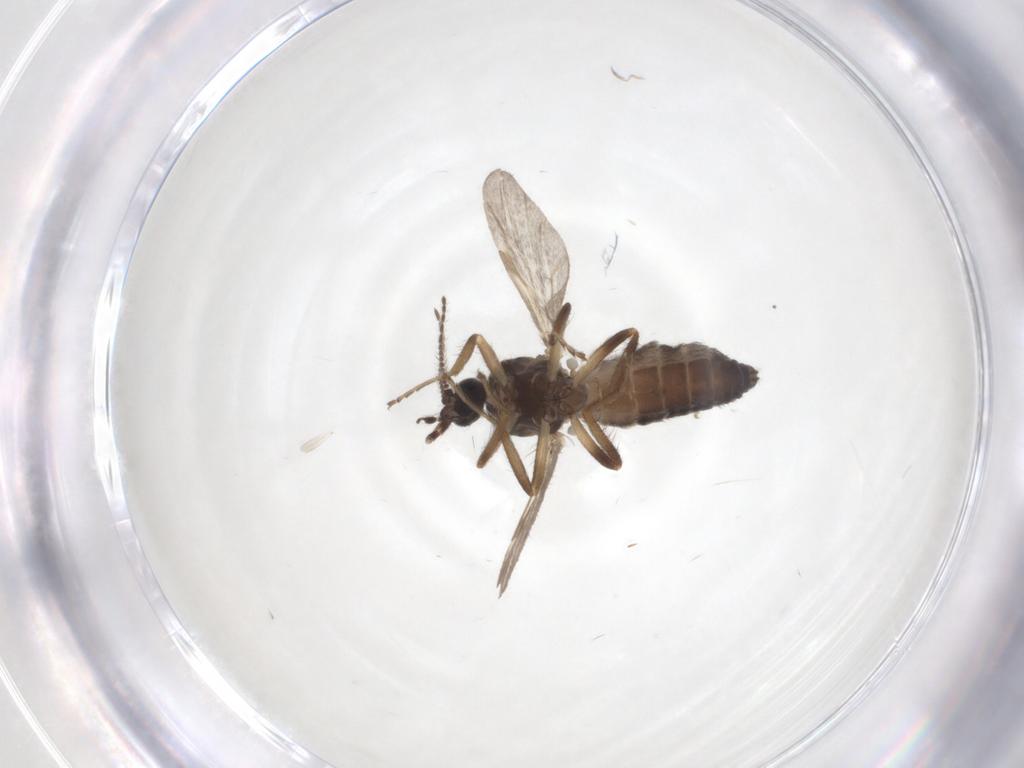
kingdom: Animalia
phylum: Arthropoda
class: Insecta
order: Diptera
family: Ceratopogonidae
